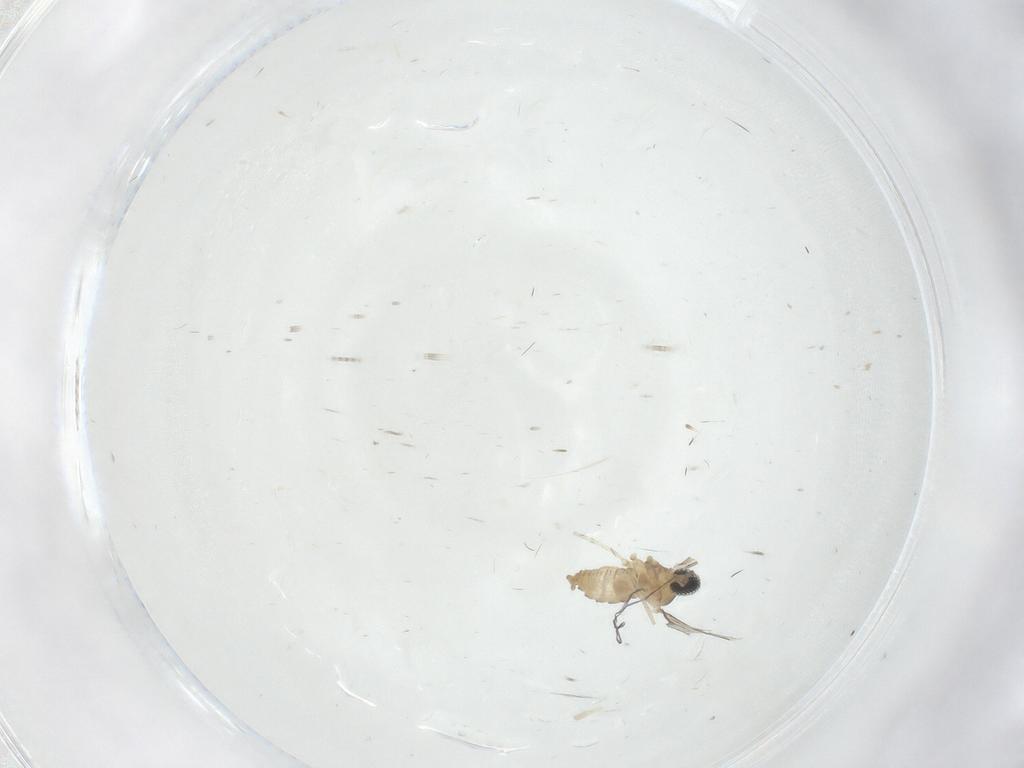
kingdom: Animalia
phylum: Arthropoda
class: Insecta
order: Diptera
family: Cecidomyiidae
